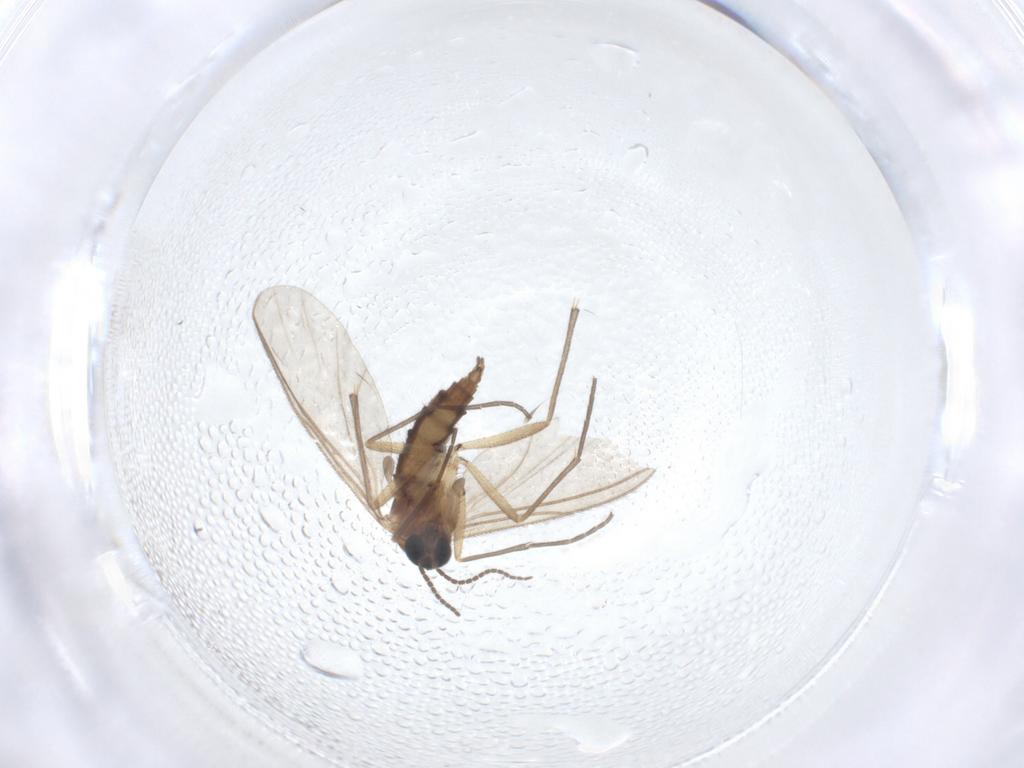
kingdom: Animalia
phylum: Arthropoda
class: Insecta
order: Diptera
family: Sciaridae
